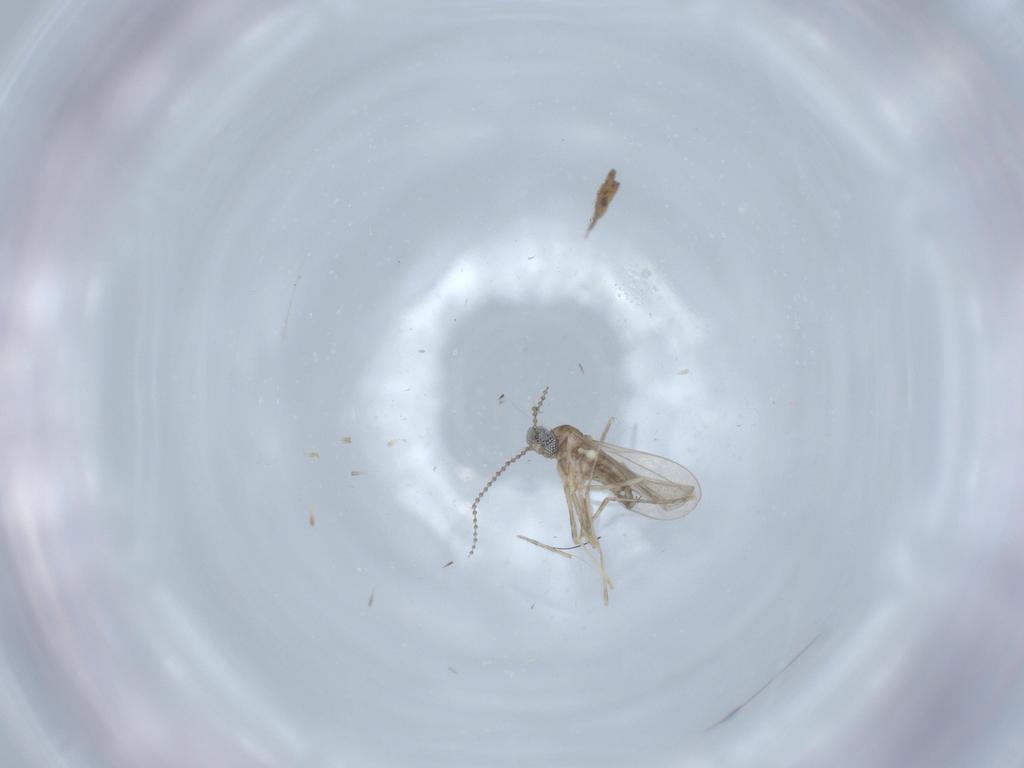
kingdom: Animalia
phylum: Arthropoda
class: Insecta
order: Diptera
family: Cecidomyiidae
